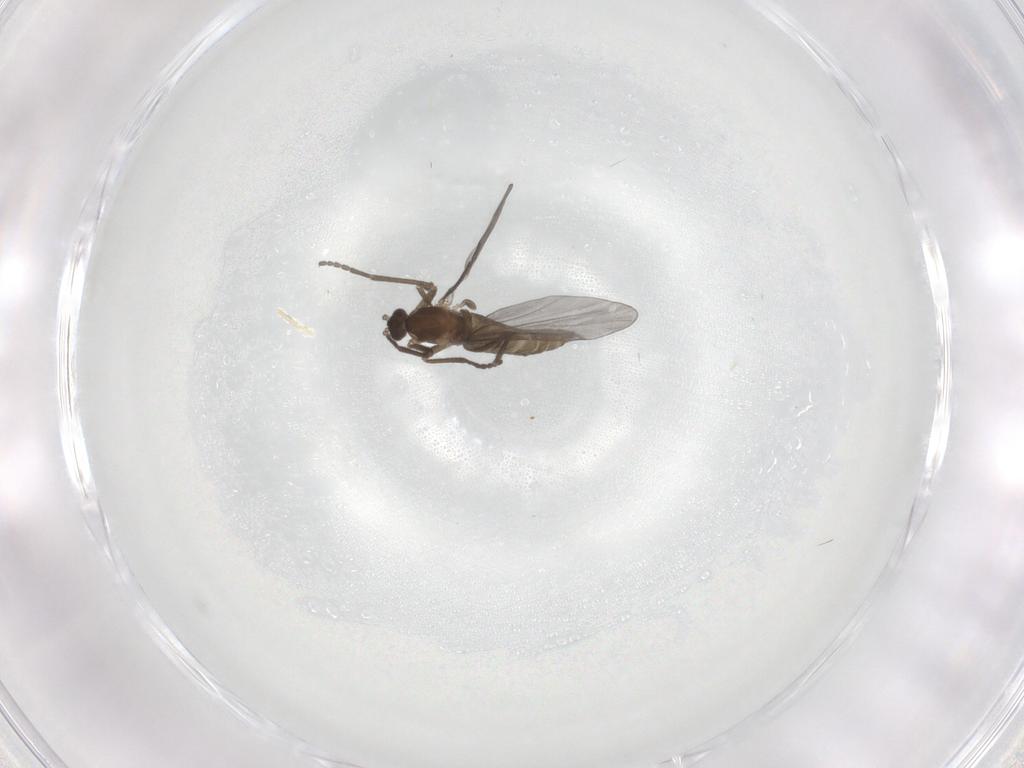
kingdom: Animalia
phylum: Arthropoda
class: Insecta
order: Diptera
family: Cecidomyiidae
